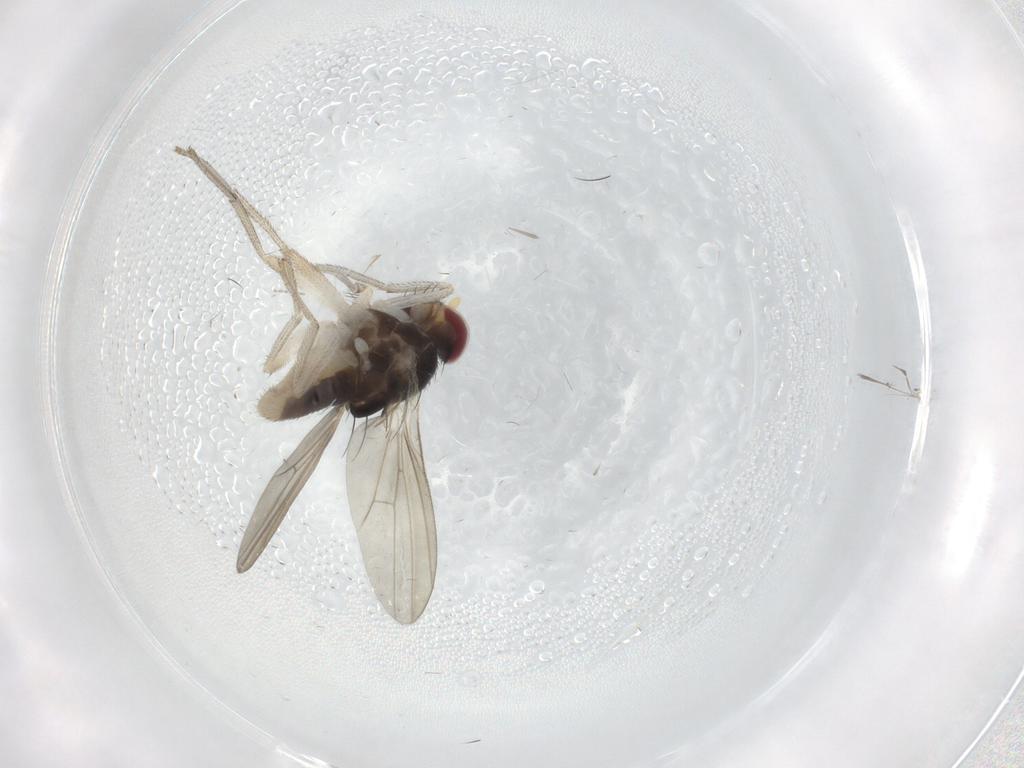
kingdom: Animalia
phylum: Arthropoda
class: Insecta
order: Diptera
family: Lauxaniidae
